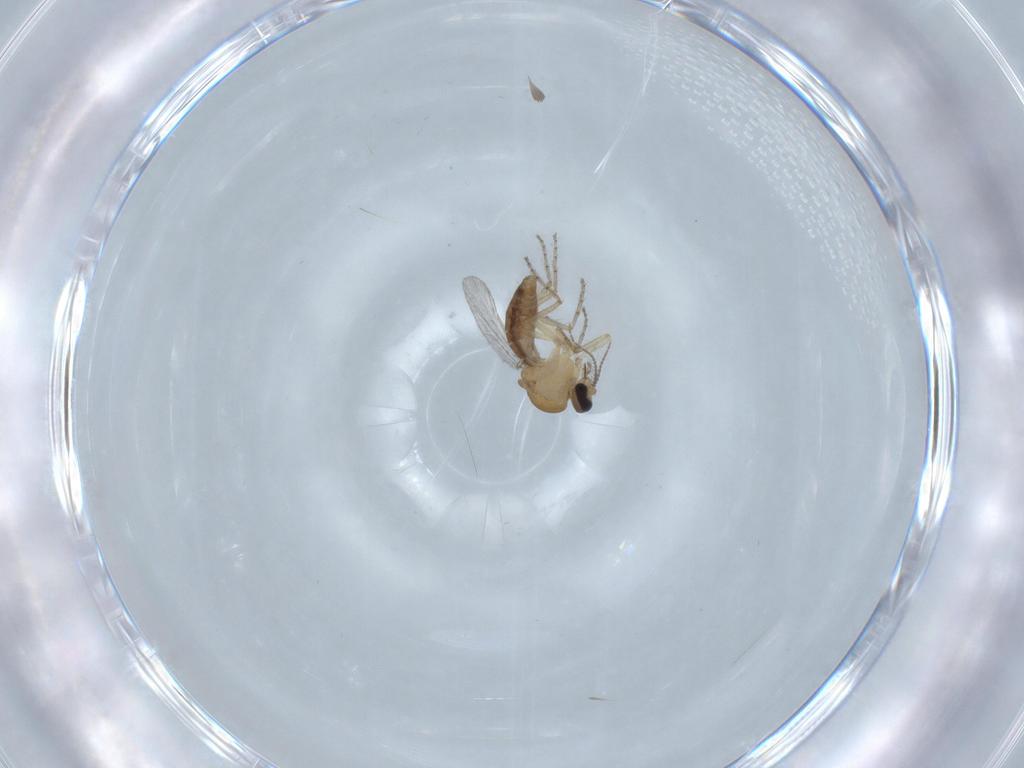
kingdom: Animalia
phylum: Arthropoda
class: Insecta
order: Diptera
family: Ceratopogonidae
